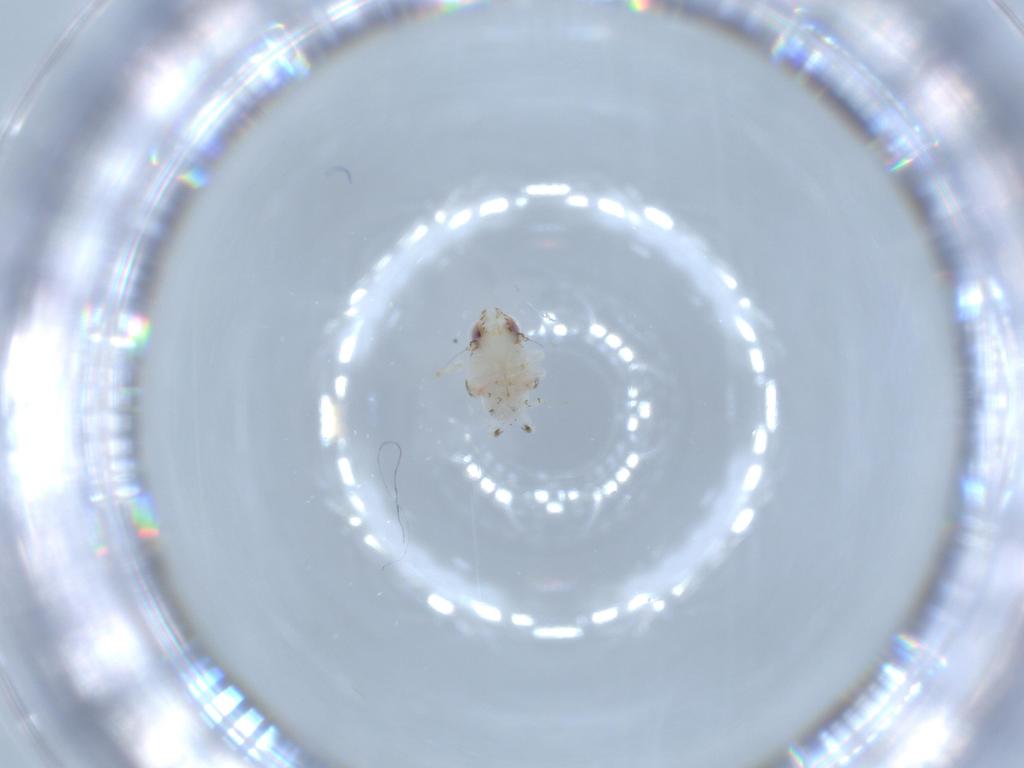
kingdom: Animalia
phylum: Arthropoda
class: Insecta
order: Hemiptera
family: Nogodinidae
